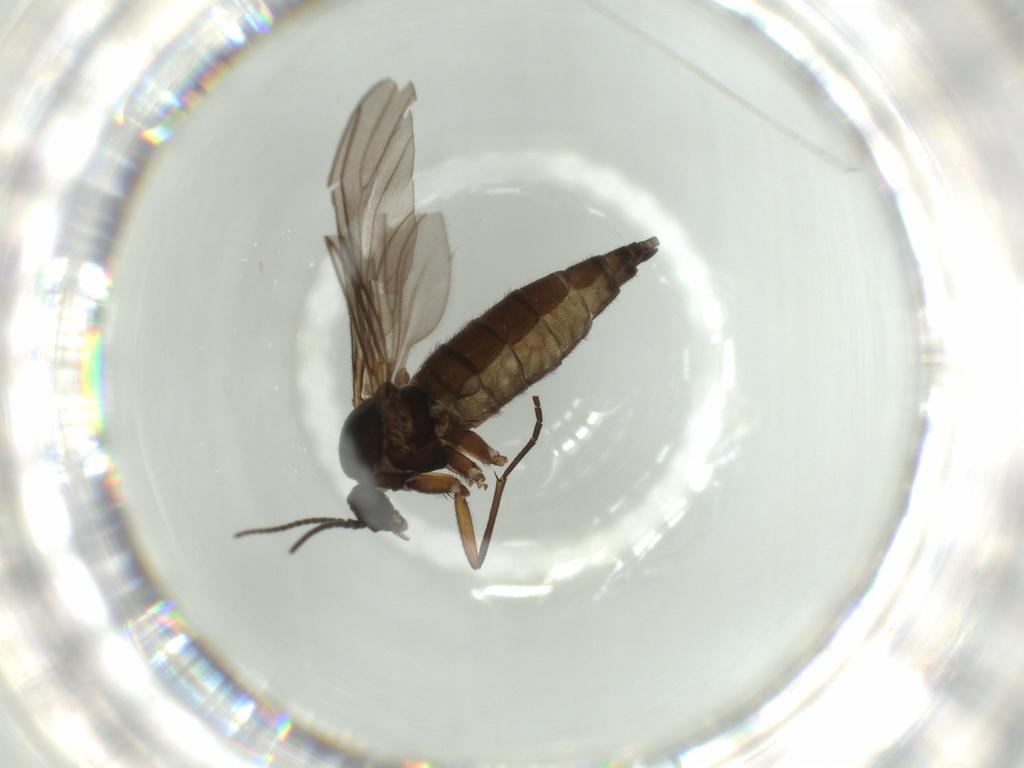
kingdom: Animalia
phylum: Arthropoda
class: Insecta
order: Diptera
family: Sciaridae
